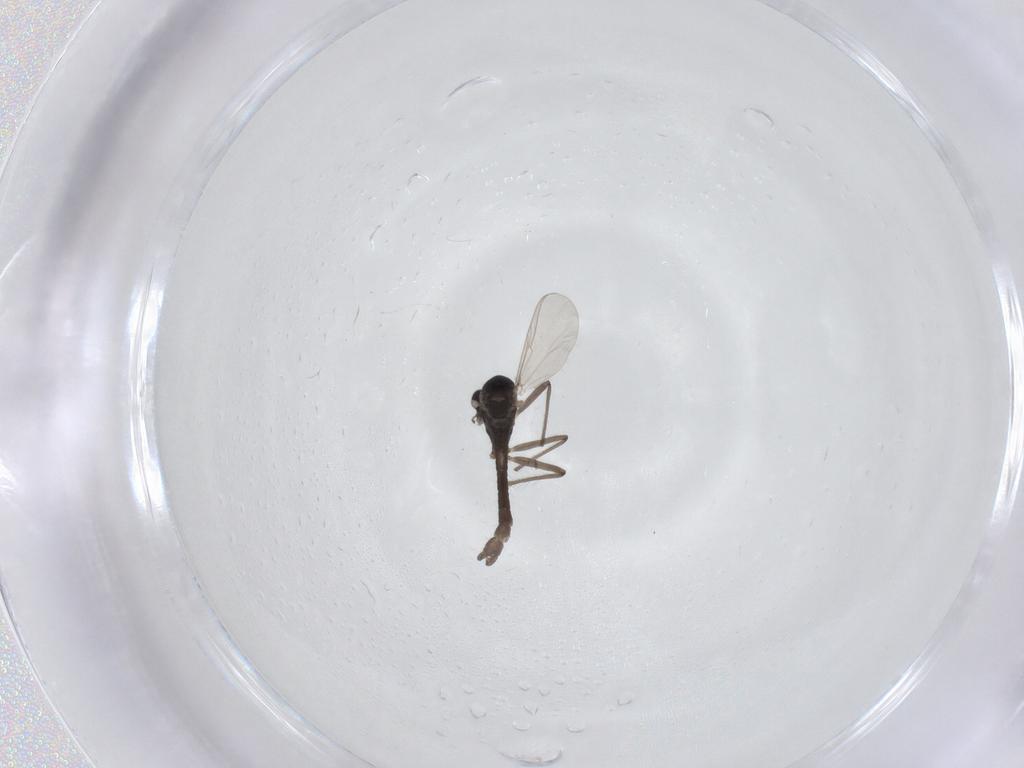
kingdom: Animalia
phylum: Arthropoda
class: Insecta
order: Diptera
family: Chironomidae
